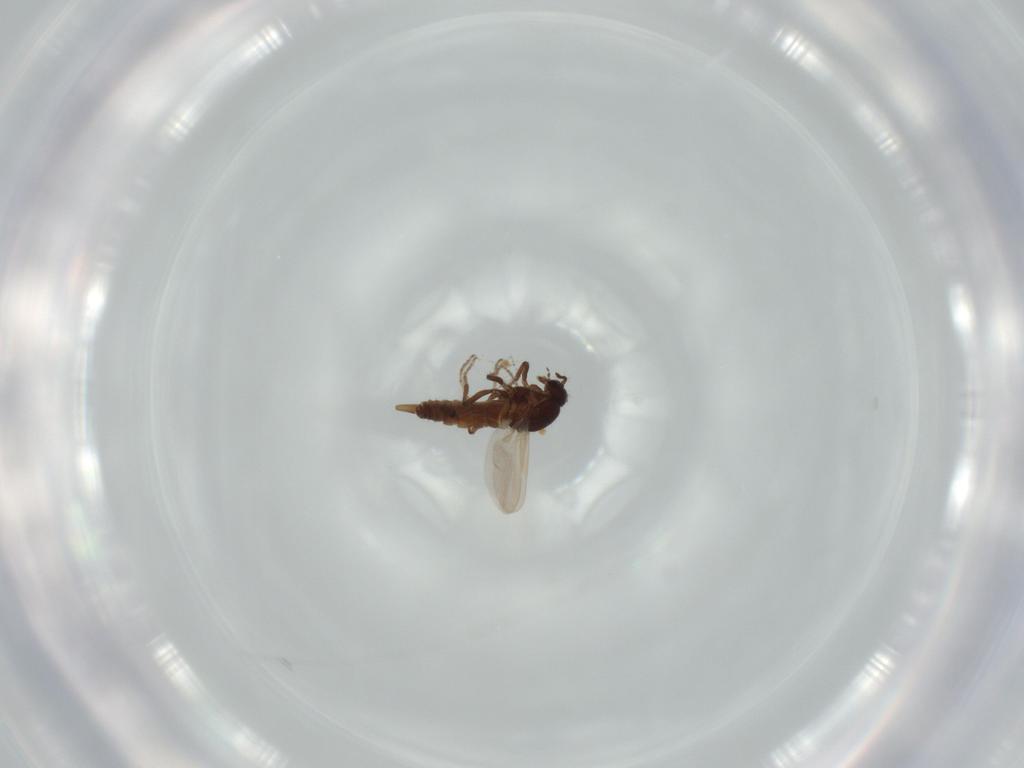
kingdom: Animalia
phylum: Arthropoda
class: Insecta
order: Diptera
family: Ceratopogonidae
